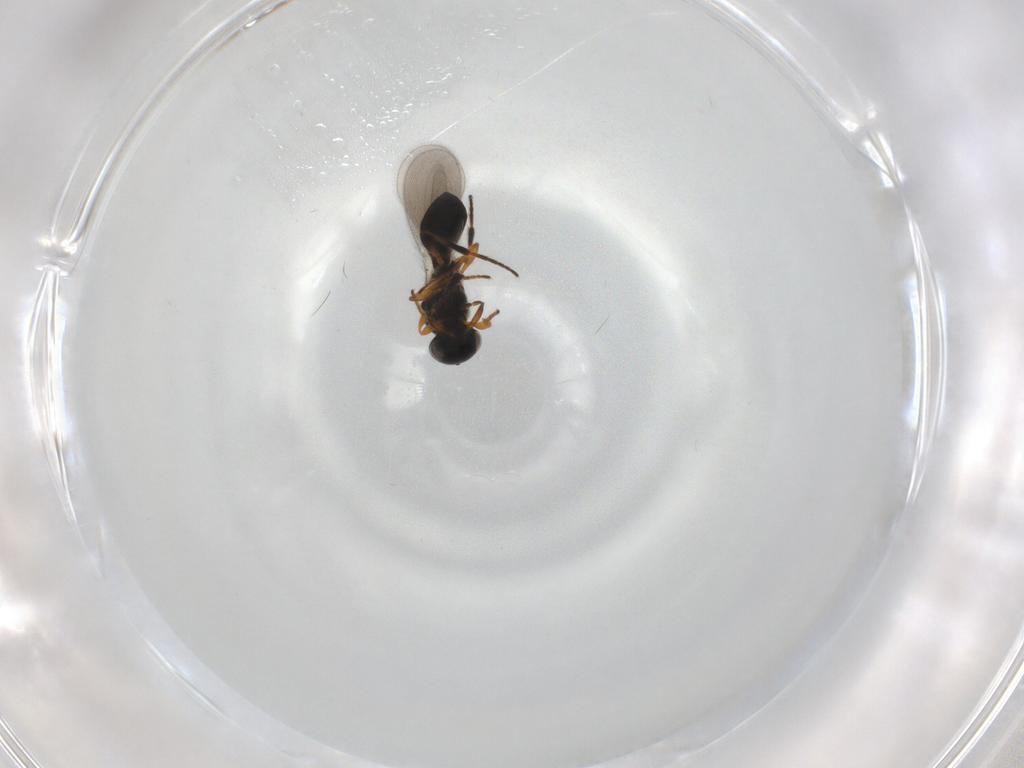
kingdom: Animalia
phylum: Arthropoda
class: Insecta
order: Hymenoptera
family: Platygastridae
